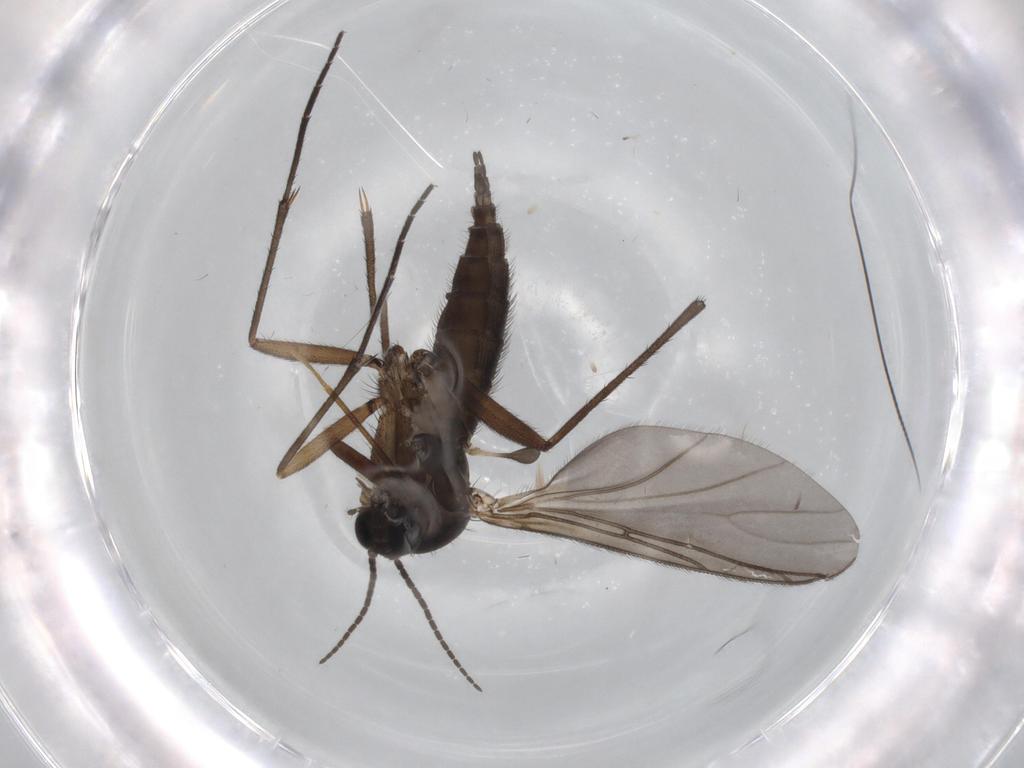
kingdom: Animalia
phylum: Arthropoda
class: Insecta
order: Diptera
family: Sciaridae
